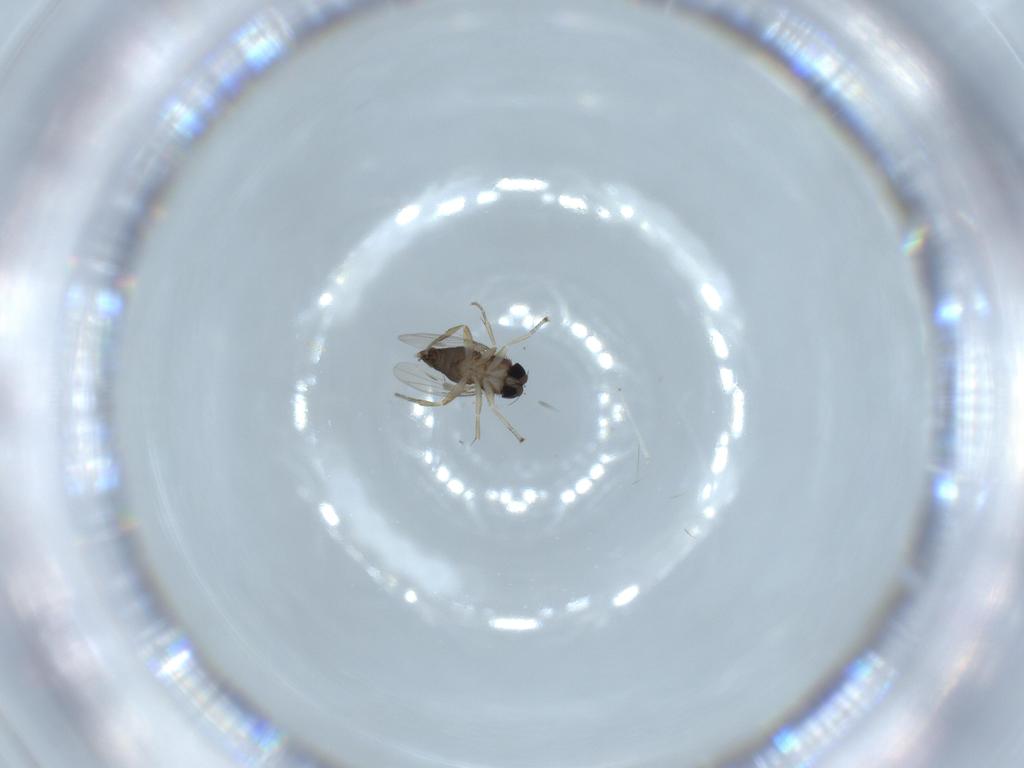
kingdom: Animalia
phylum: Arthropoda
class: Insecta
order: Diptera
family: Phoridae
